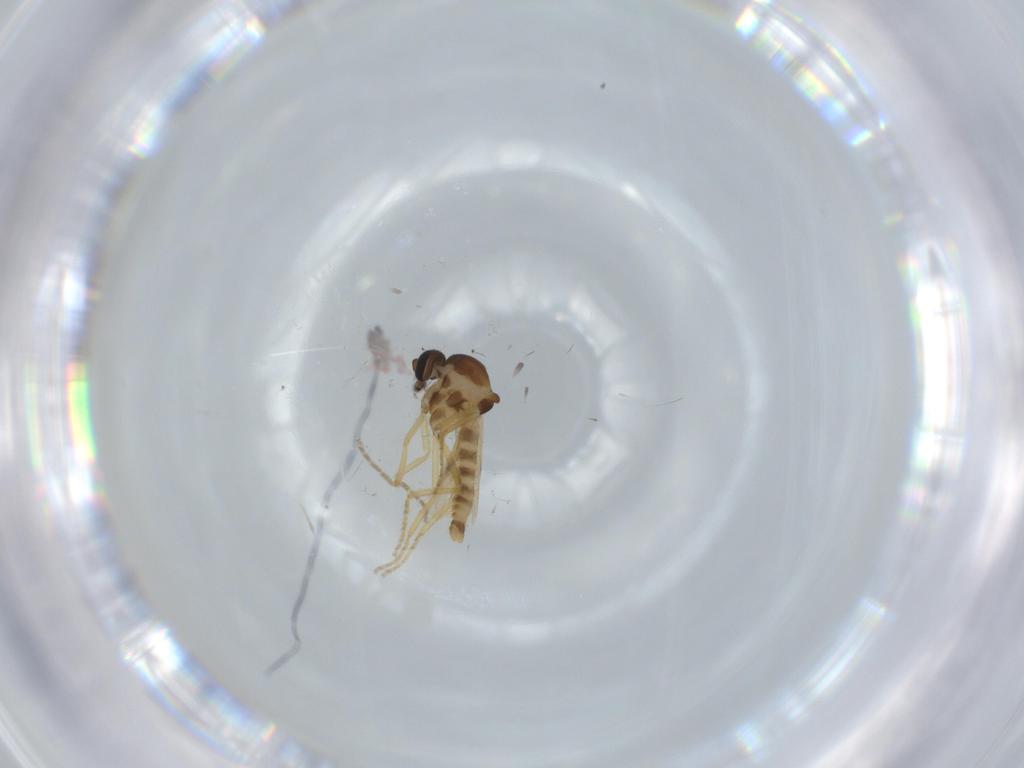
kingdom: Animalia
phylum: Arthropoda
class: Insecta
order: Diptera
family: Ceratopogonidae
